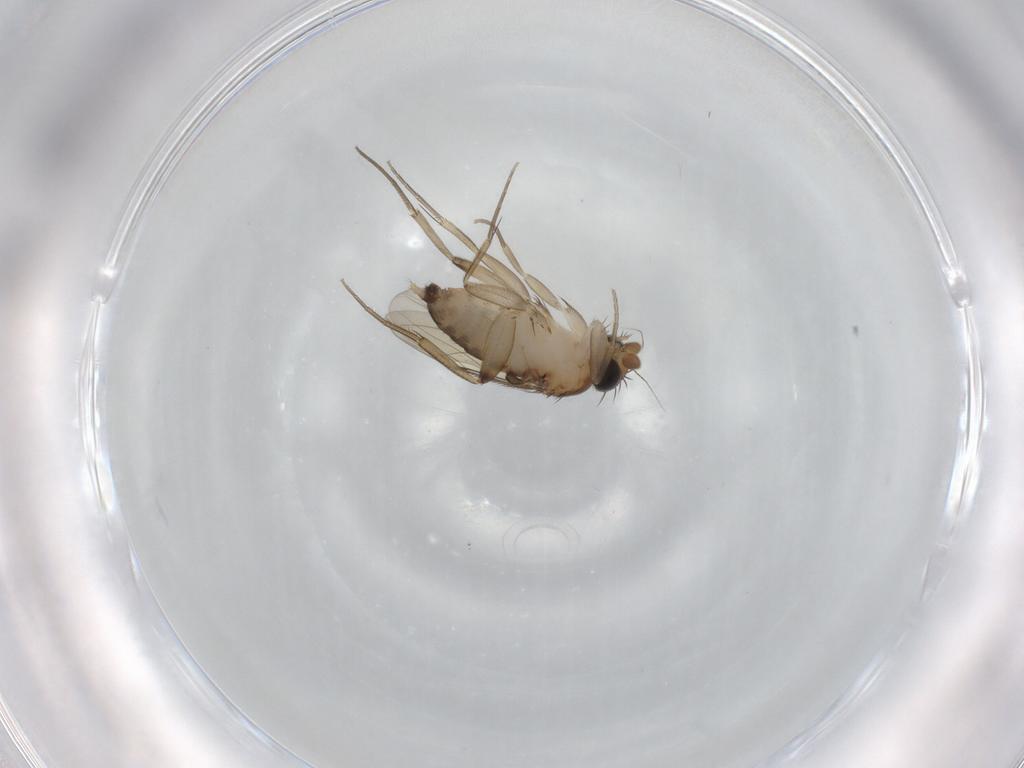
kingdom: Animalia
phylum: Arthropoda
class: Insecta
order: Diptera
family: Phoridae
